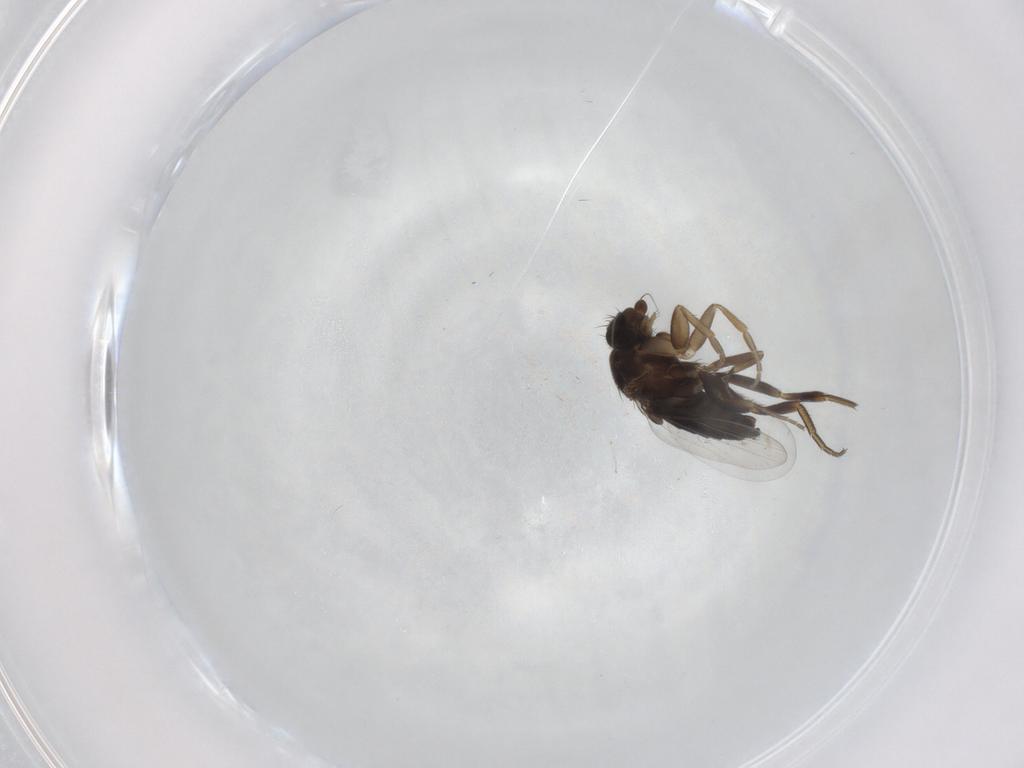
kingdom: Animalia
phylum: Arthropoda
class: Insecta
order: Diptera
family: Phoridae
